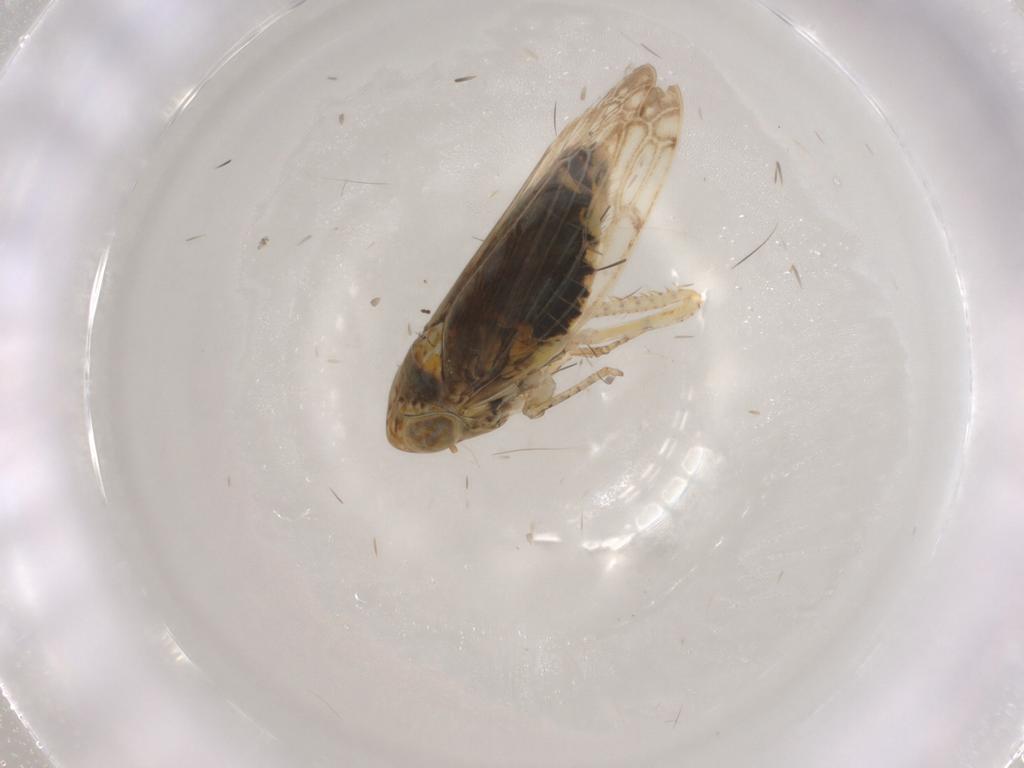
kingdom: Animalia
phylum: Arthropoda
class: Insecta
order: Hemiptera
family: Cicadellidae
